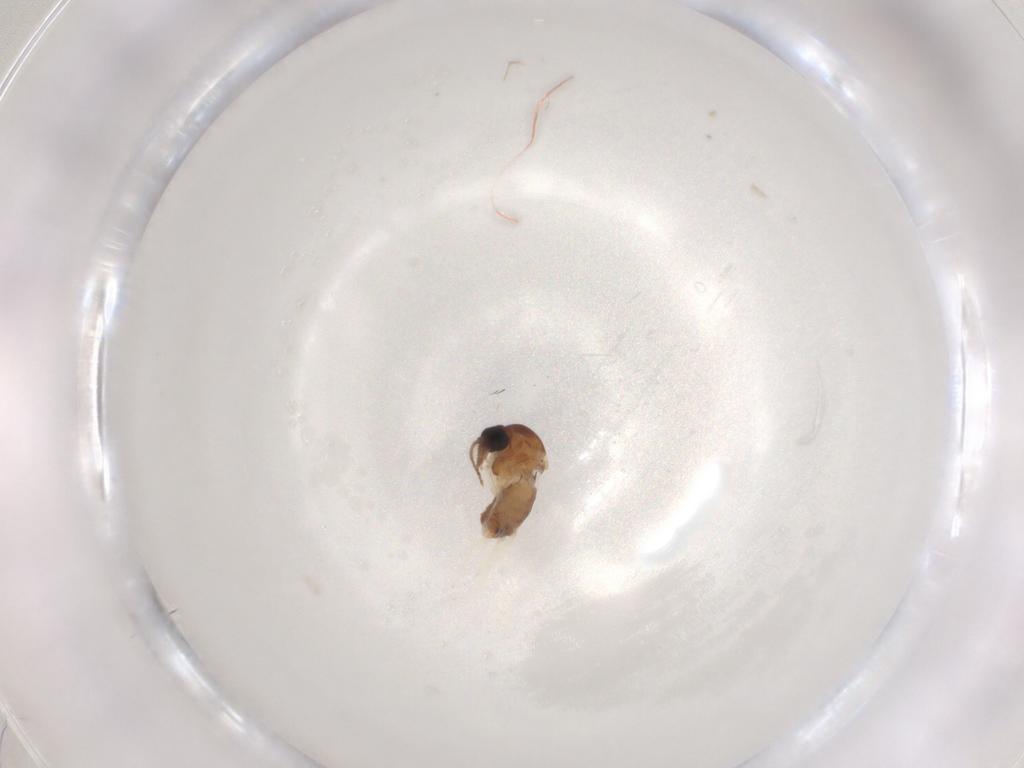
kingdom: Animalia
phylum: Arthropoda
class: Insecta
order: Diptera
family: Ceratopogonidae
